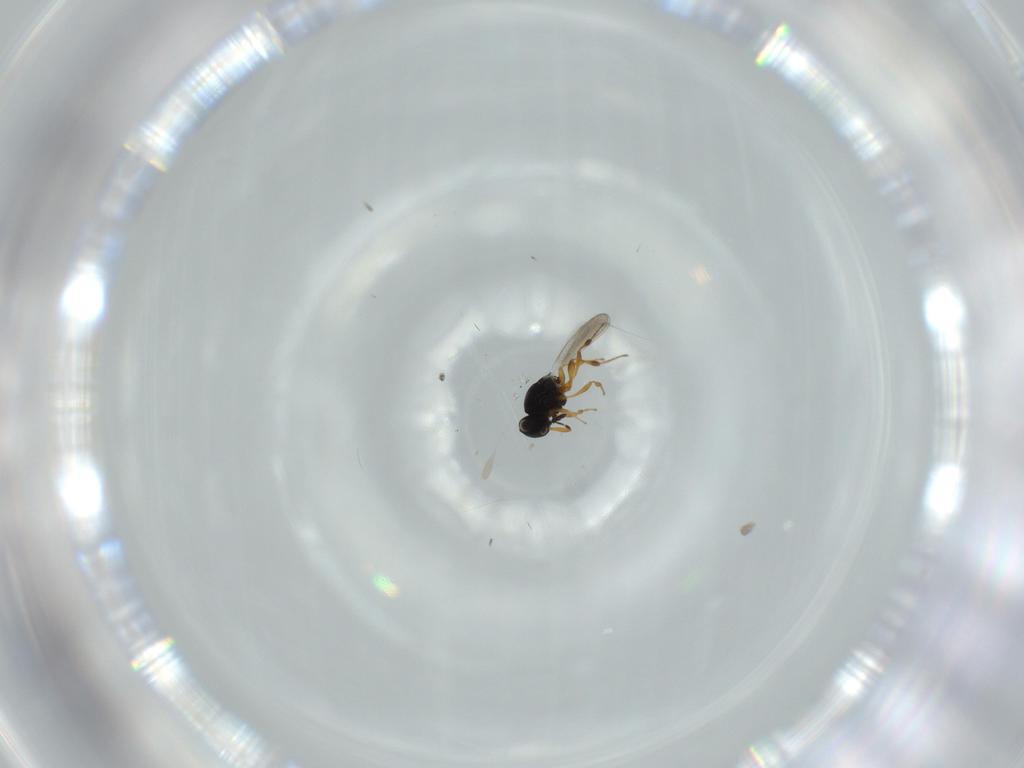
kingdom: Animalia
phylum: Arthropoda
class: Insecta
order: Hymenoptera
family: Platygastridae
